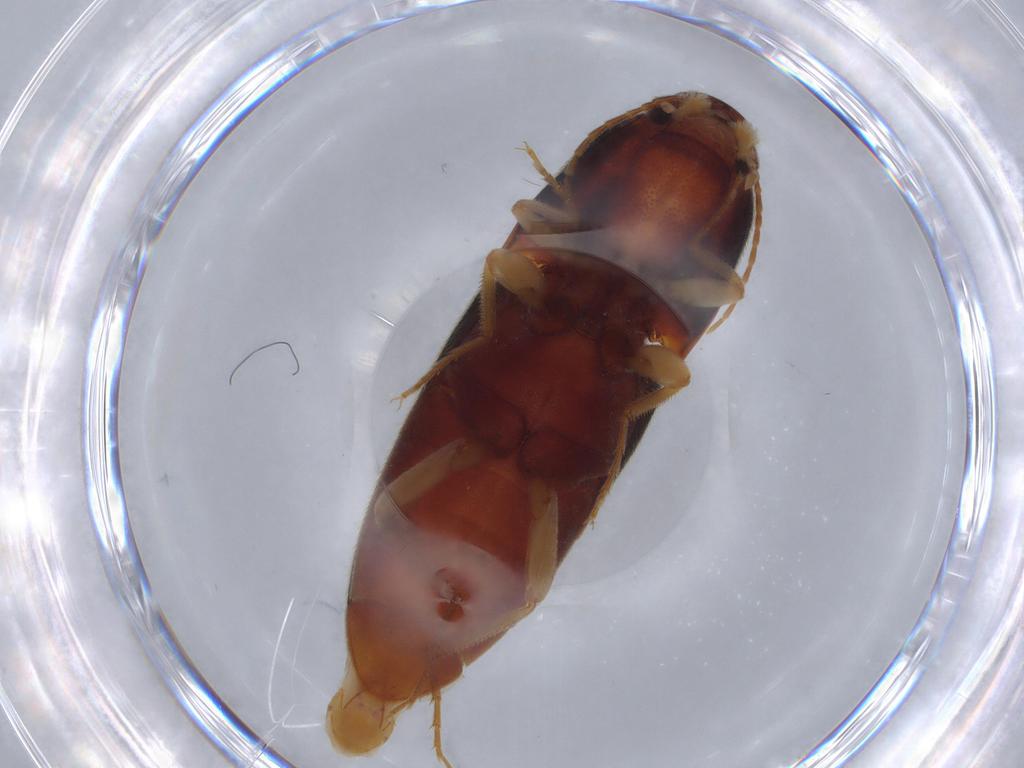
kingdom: Animalia
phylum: Arthropoda
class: Insecta
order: Coleoptera
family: Elateridae
